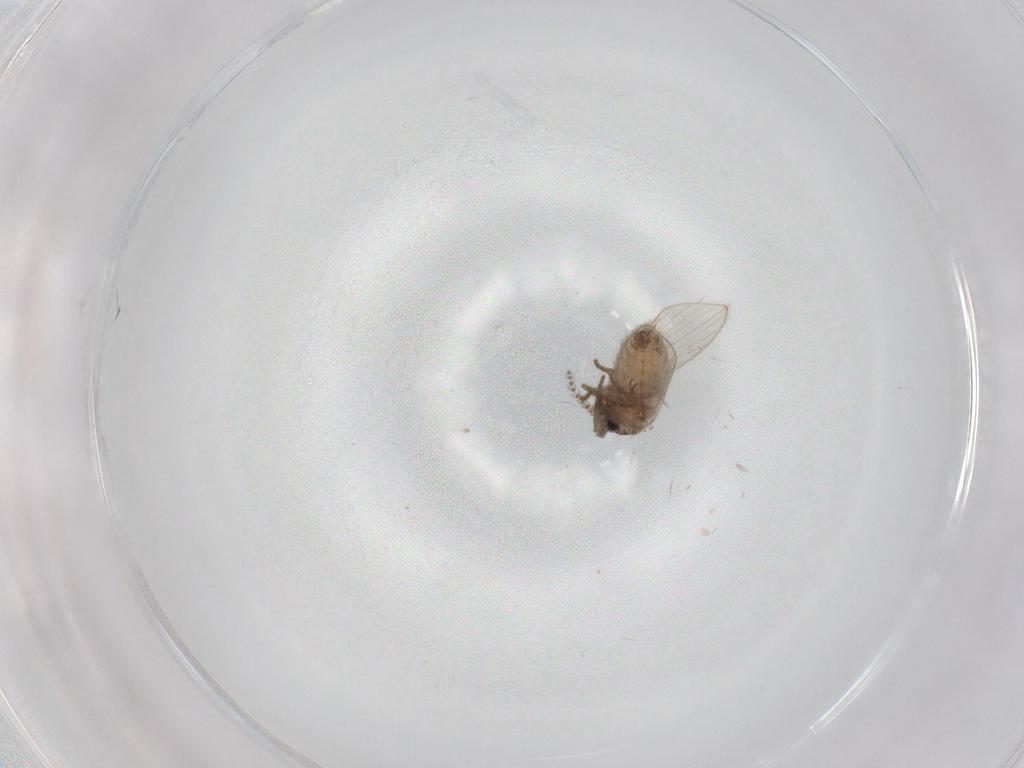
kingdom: Animalia
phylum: Arthropoda
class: Insecta
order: Diptera
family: Psychodidae
